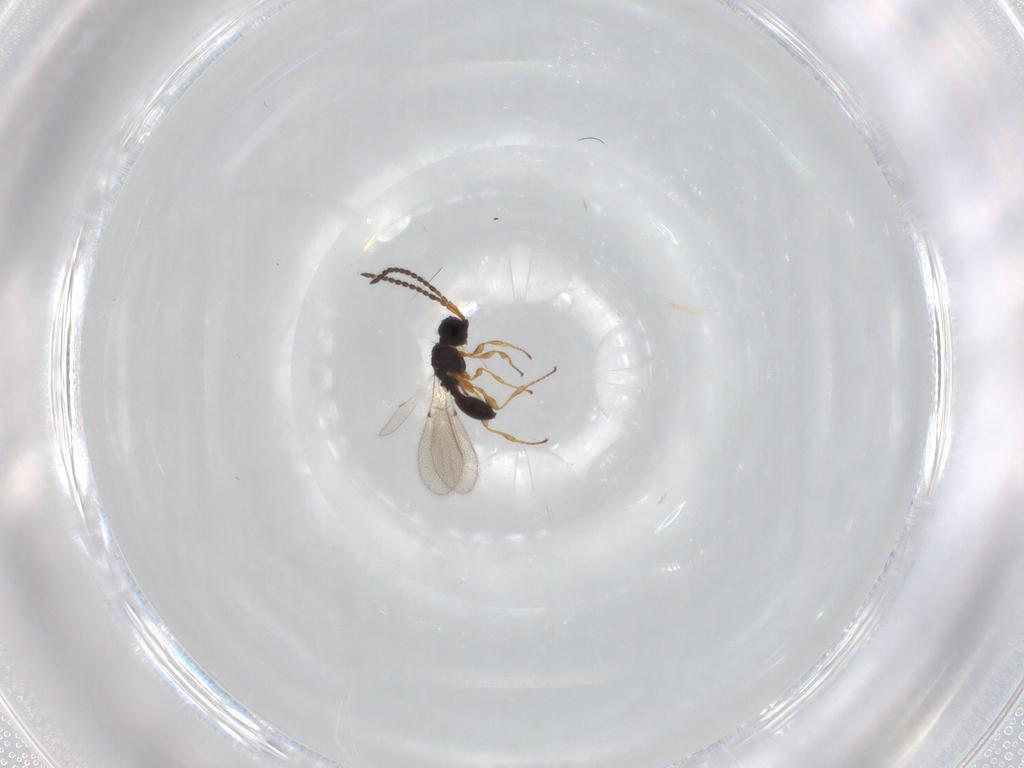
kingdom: Animalia
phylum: Arthropoda
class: Insecta
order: Hymenoptera
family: Diapriidae
